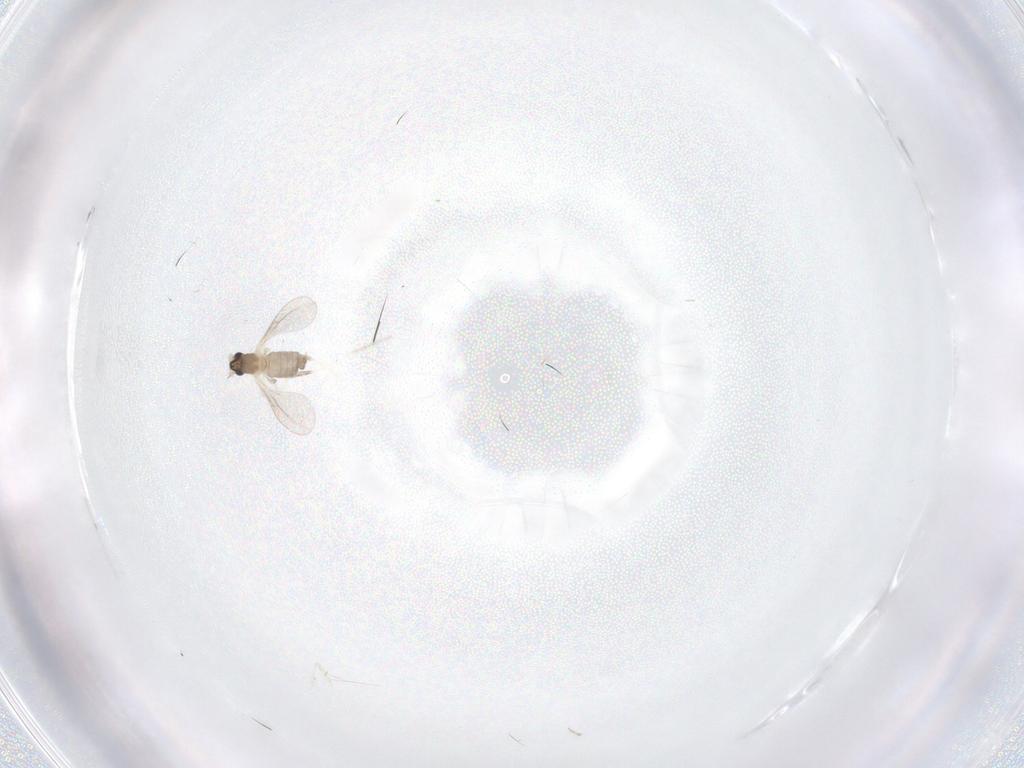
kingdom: Animalia
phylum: Arthropoda
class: Insecta
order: Diptera
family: Cecidomyiidae
